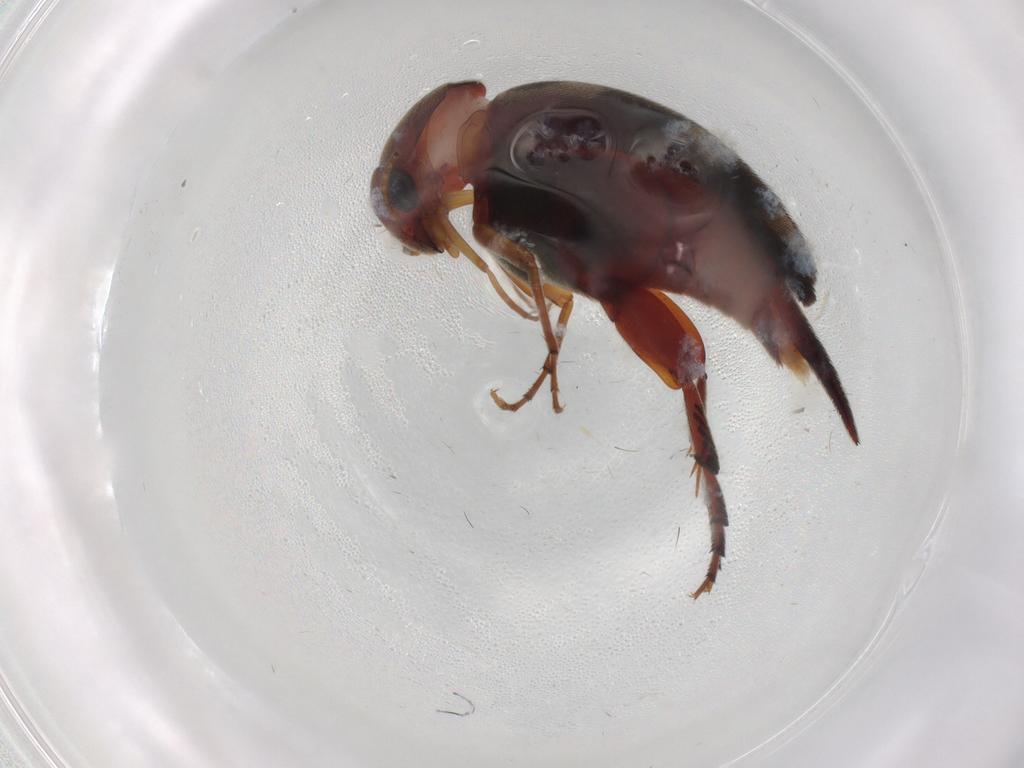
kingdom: Animalia
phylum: Arthropoda
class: Insecta
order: Coleoptera
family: Mordellidae
